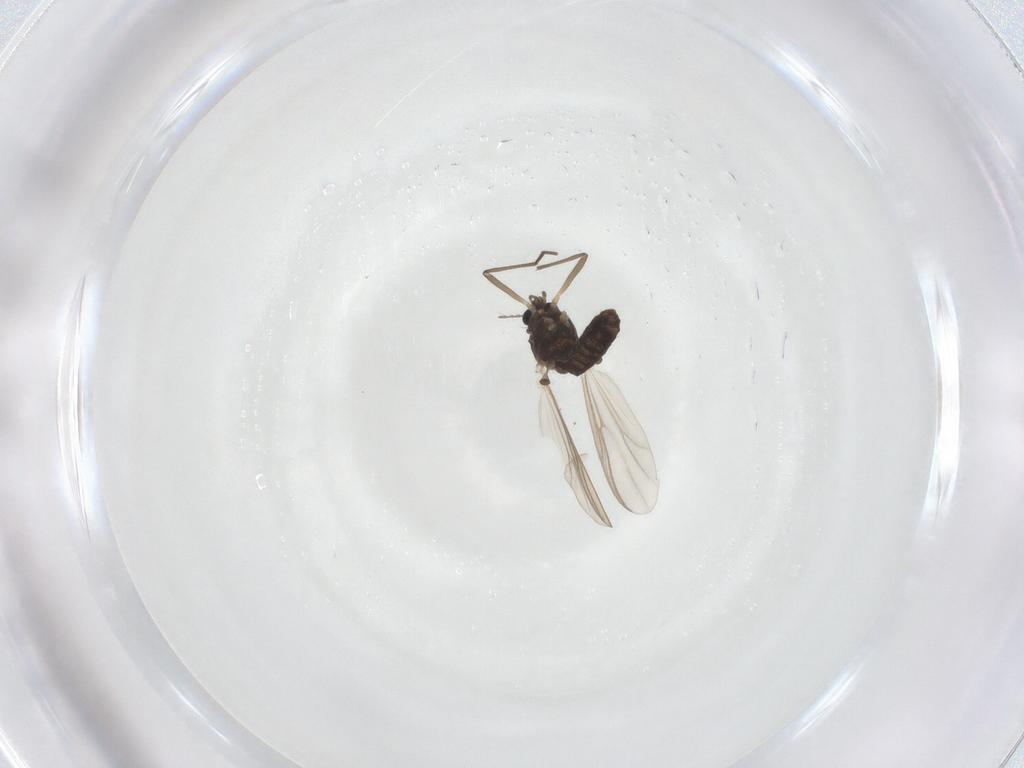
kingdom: Animalia
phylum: Arthropoda
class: Insecta
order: Diptera
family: Chironomidae
